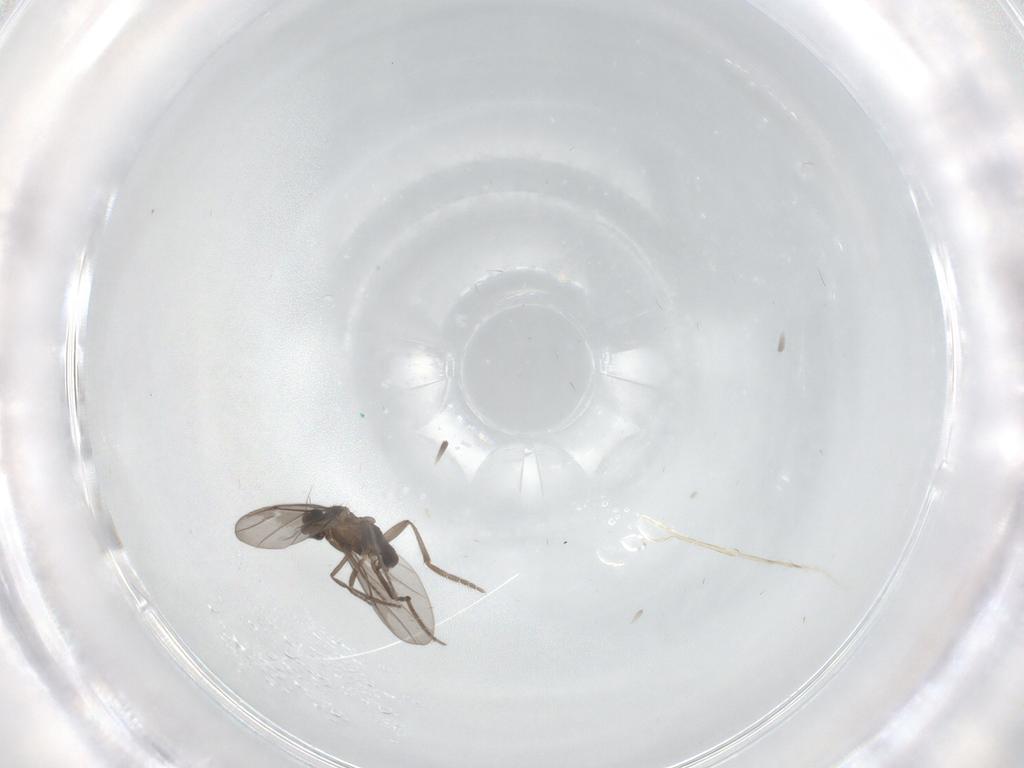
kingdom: Animalia
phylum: Arthropoda
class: Insecta
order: Diptera
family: Phoridae
